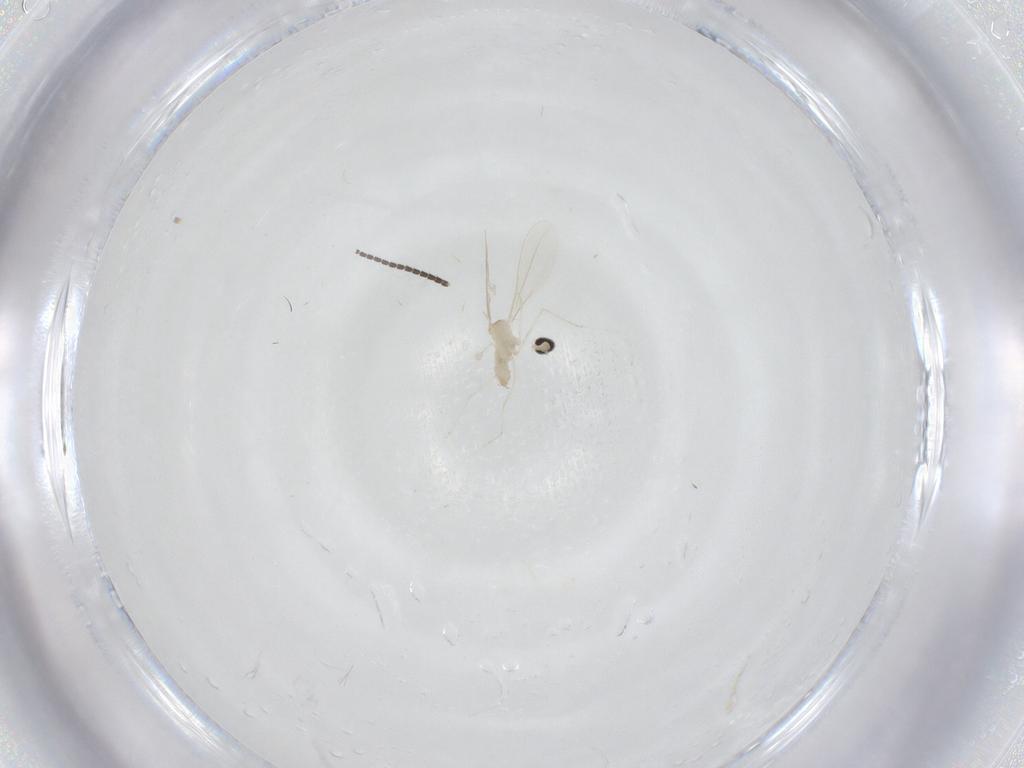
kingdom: Animalia
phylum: Arthropoda
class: Insecta
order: Diptera
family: Sciaridae
